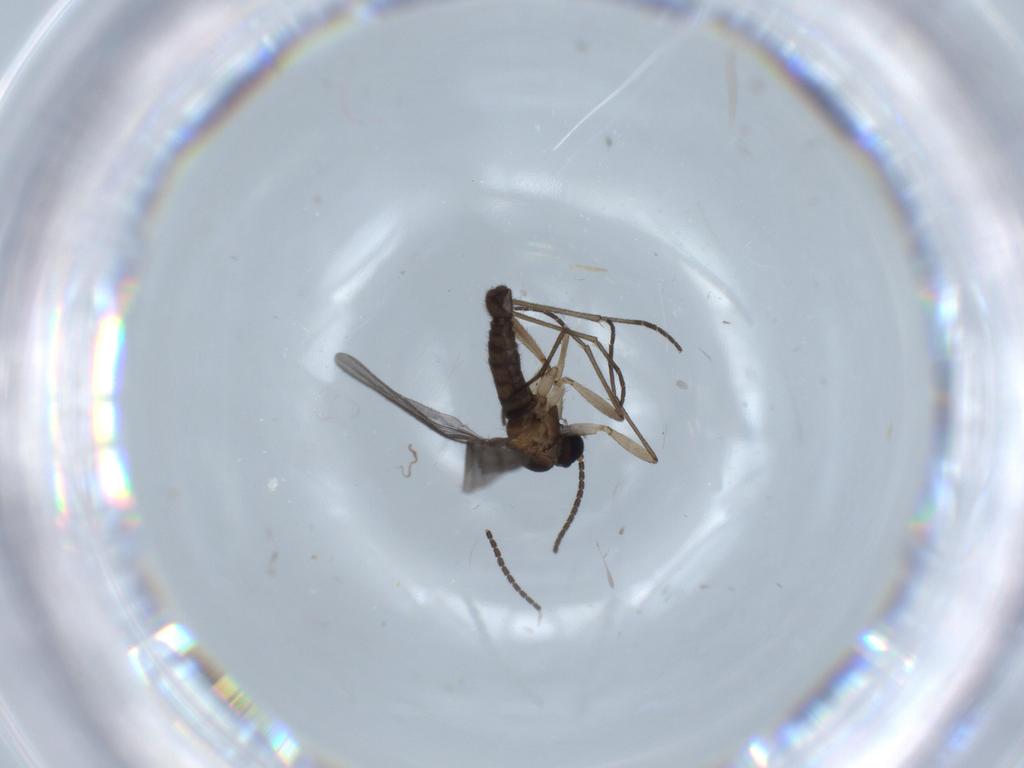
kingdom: Animalia
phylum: Arthropoda
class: Insecta
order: Diptera
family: Sciaridae
